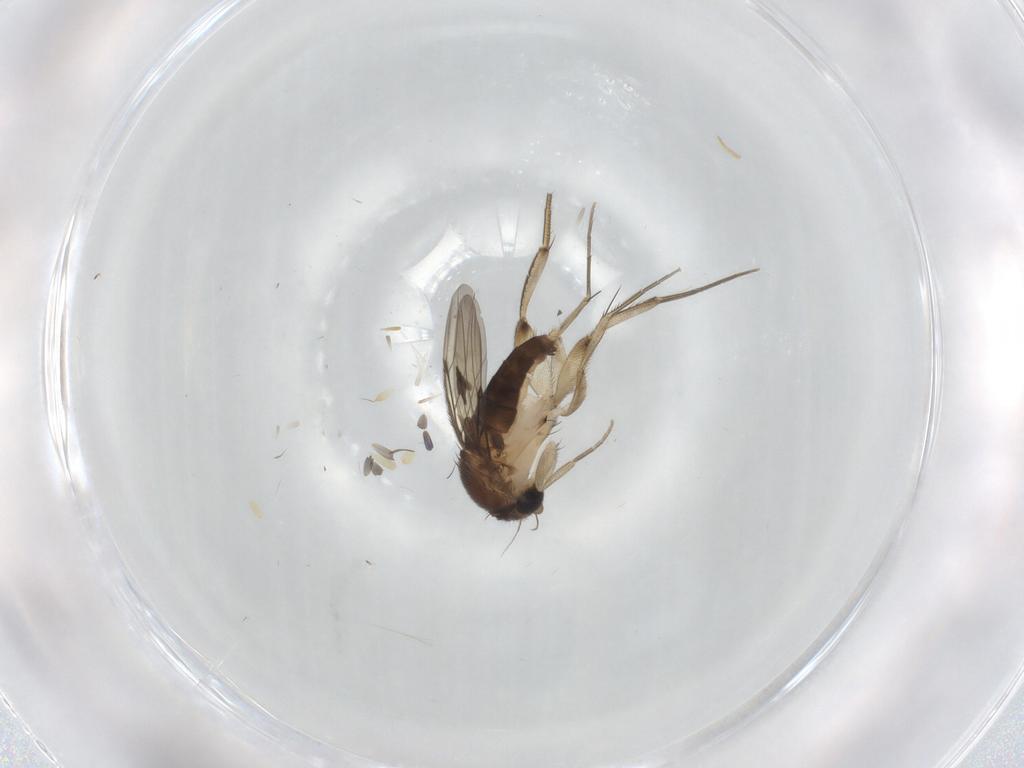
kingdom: Animalia
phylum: Arthropoda
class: Insecta
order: Diptera
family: Phoridae
